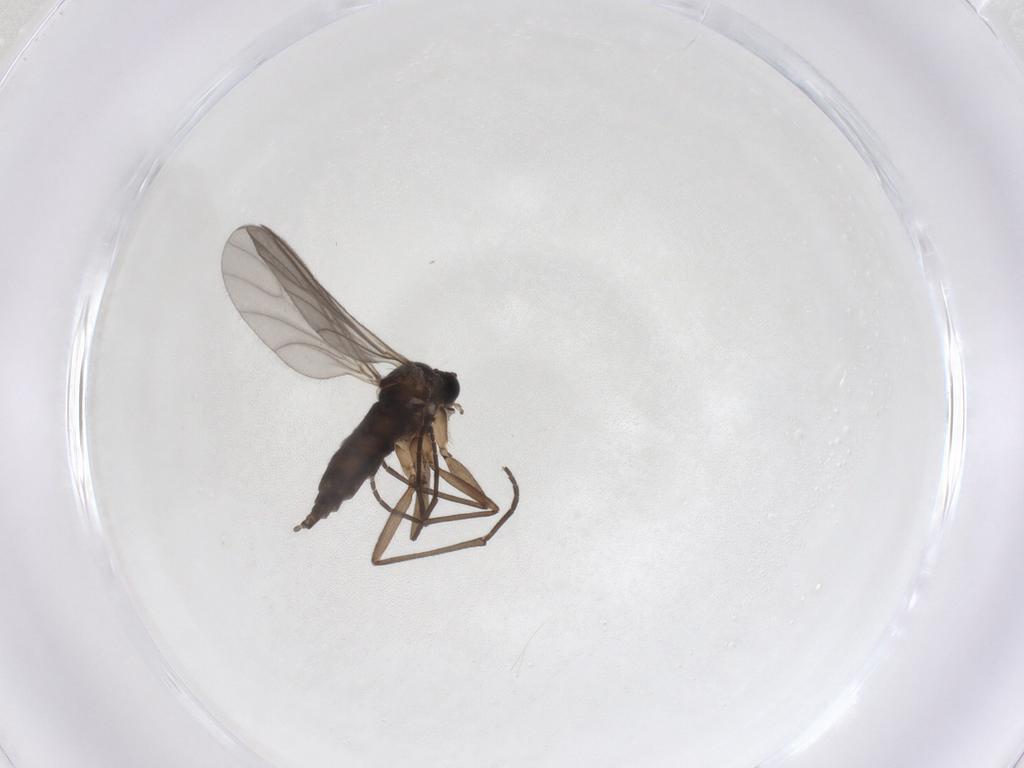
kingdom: Animalia
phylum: Arthropoda
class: Insecta
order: Diptera
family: Sciaridae
